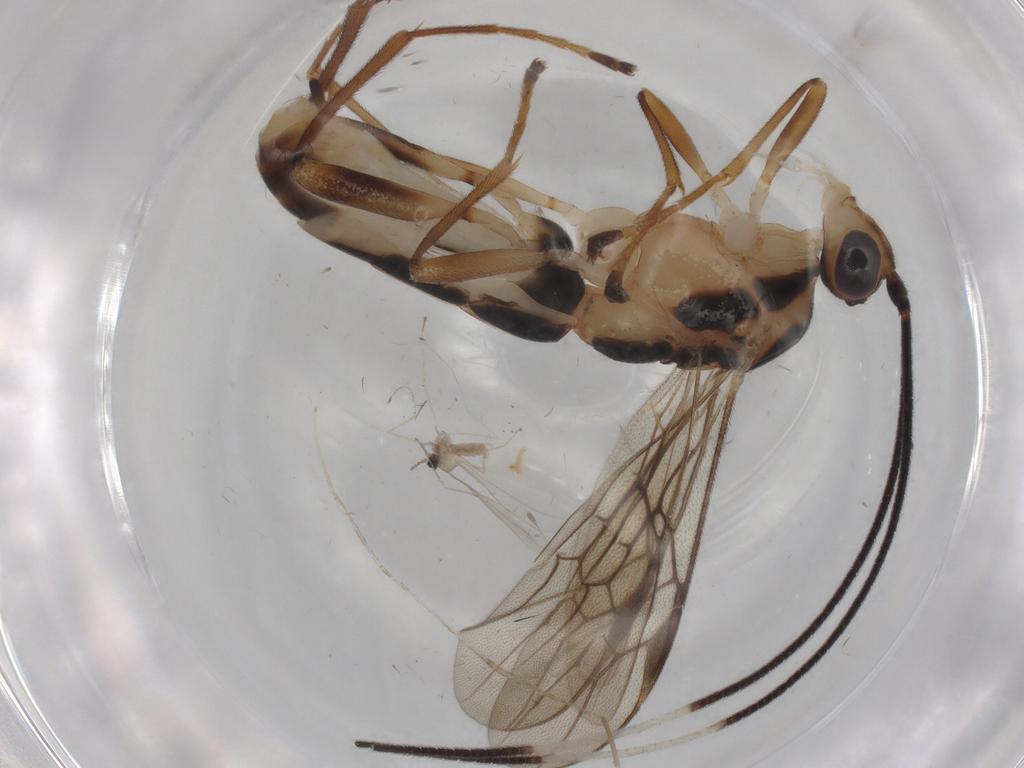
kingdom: Animalia
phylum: Arthropoda
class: Insecta
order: Diptera
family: Cecidomyiidae
